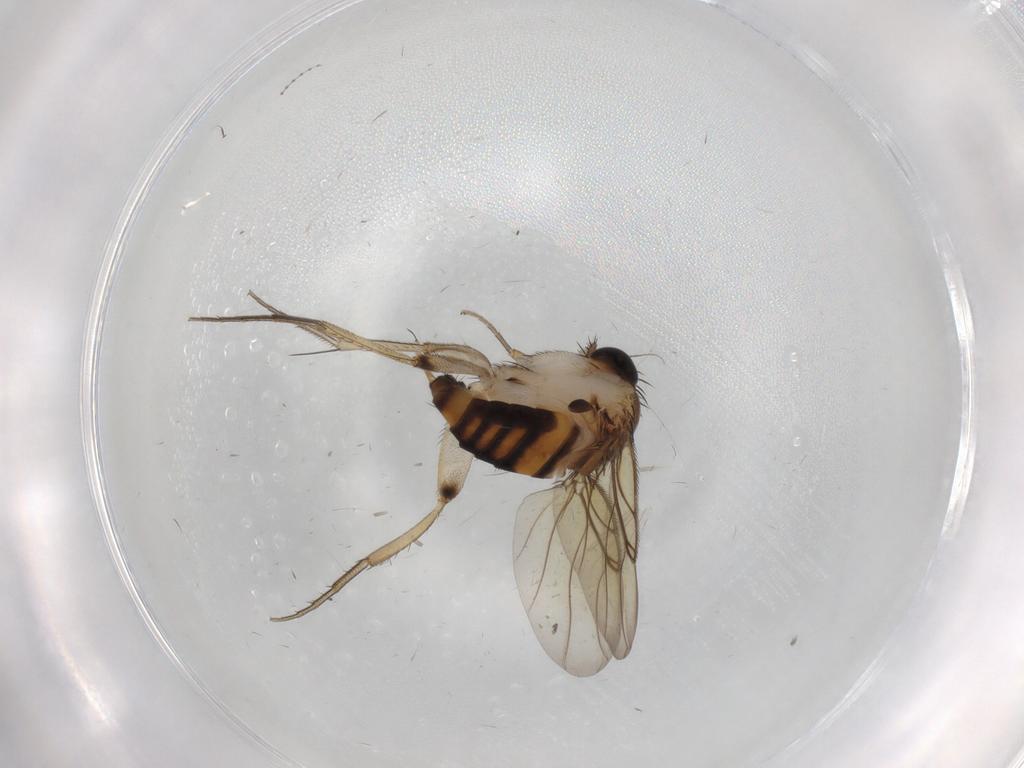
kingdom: Animalia
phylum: Arthropoda
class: Insecta
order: Diptera
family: Phoridae
